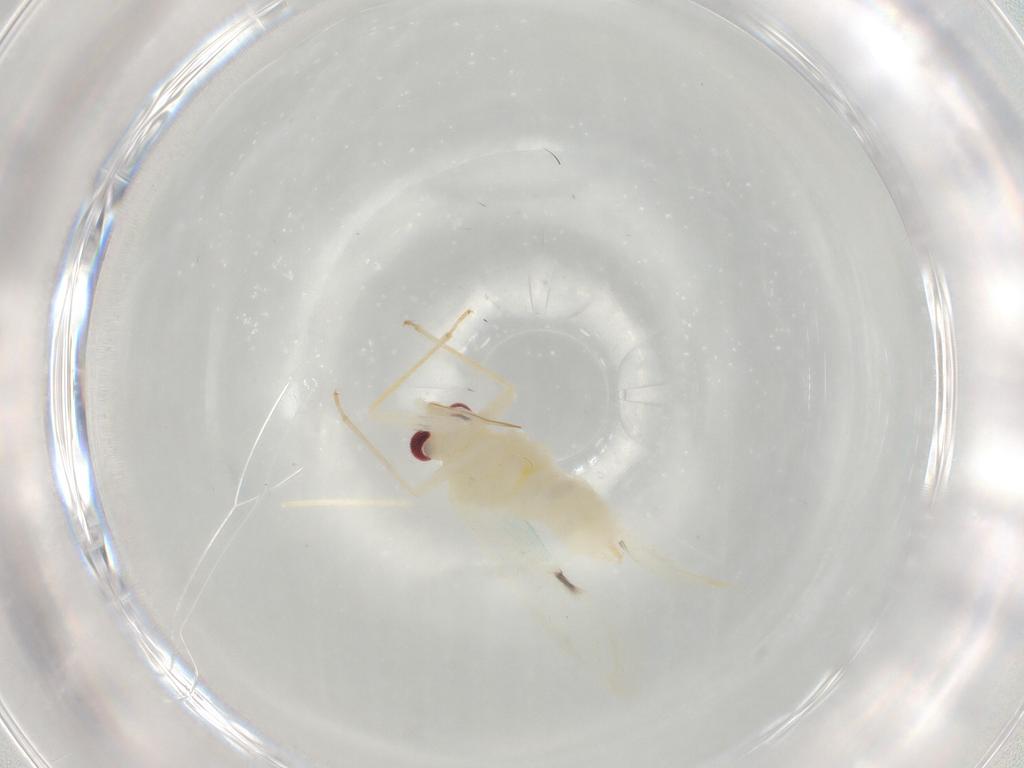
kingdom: Animalia
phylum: Arthropoda
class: Insecta
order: Hemiptera
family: Miridae
